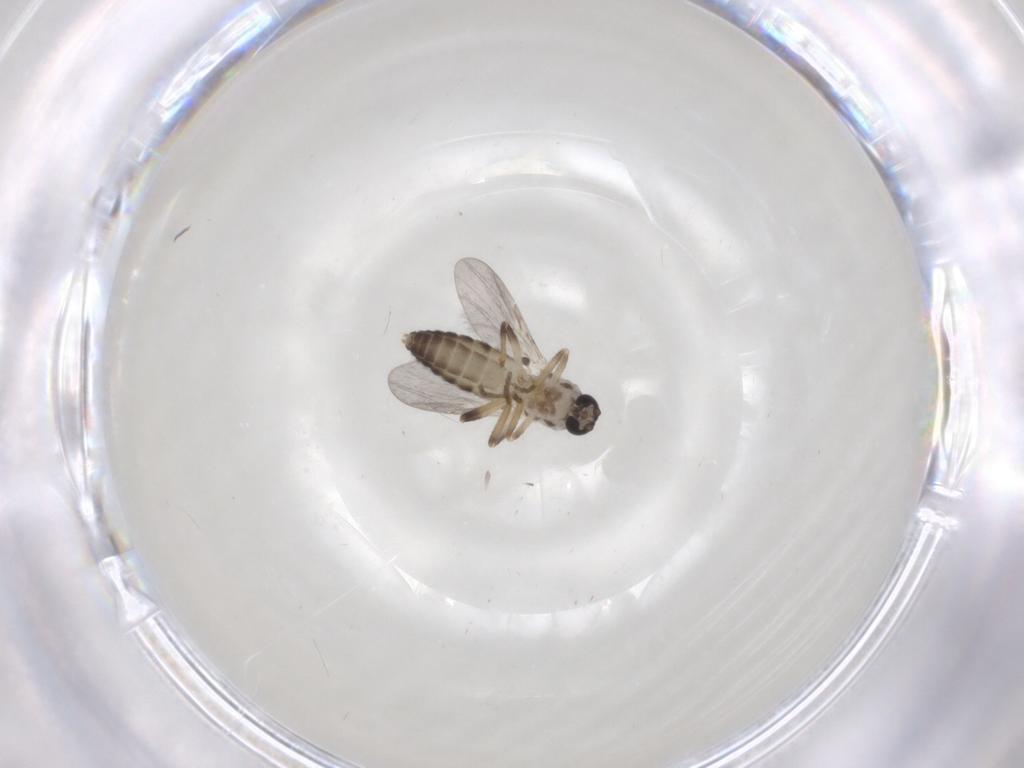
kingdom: Animalia
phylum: Arthropoda
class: Insecta
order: Diptera
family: Ceratopogonidae
